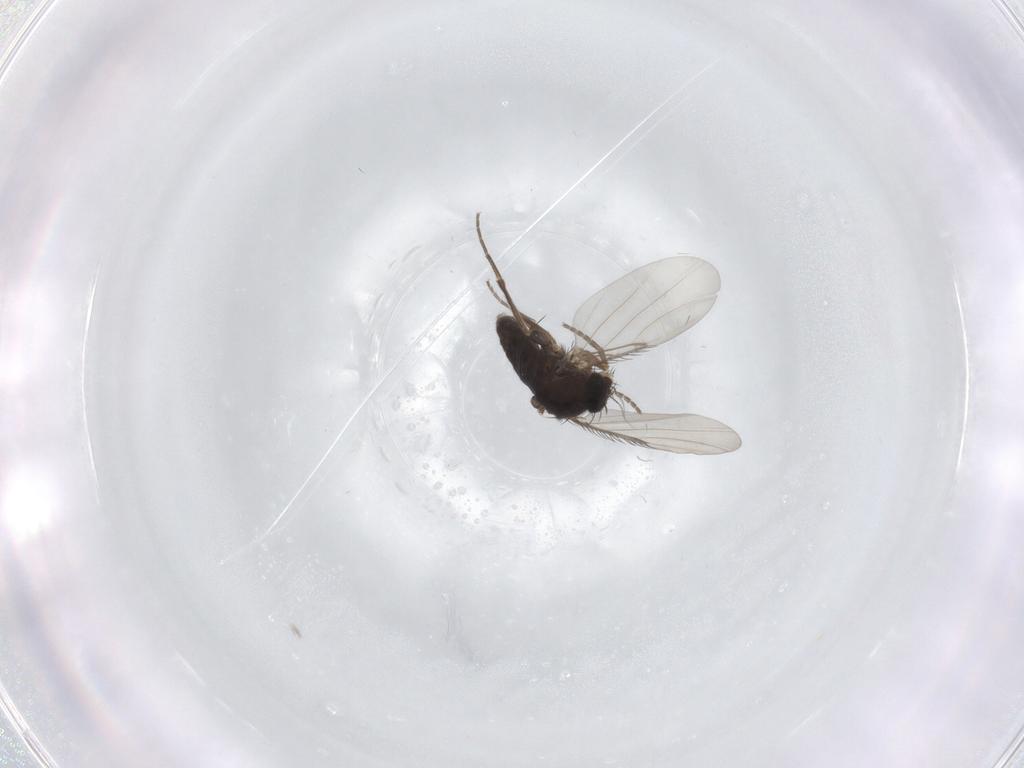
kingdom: Animalia
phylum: Arthropoda
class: Insecta
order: Diptera
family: Phoridae
